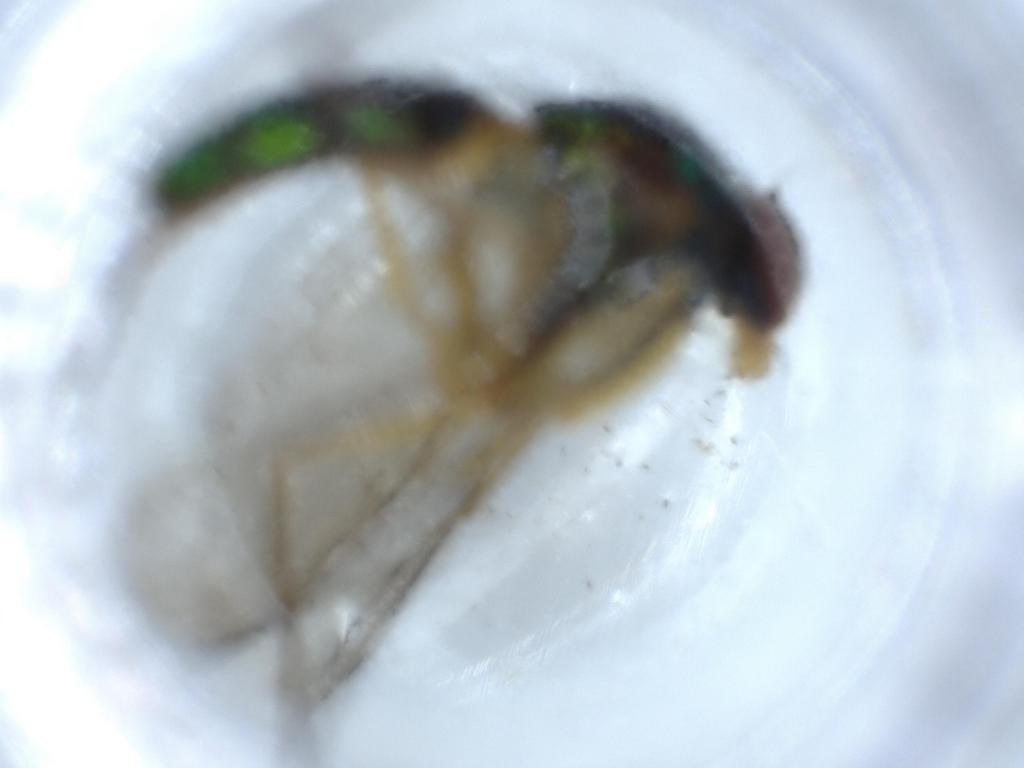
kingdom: Animalia
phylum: Arthropoda
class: Insecta
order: Diptera
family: Dolichopodidae
